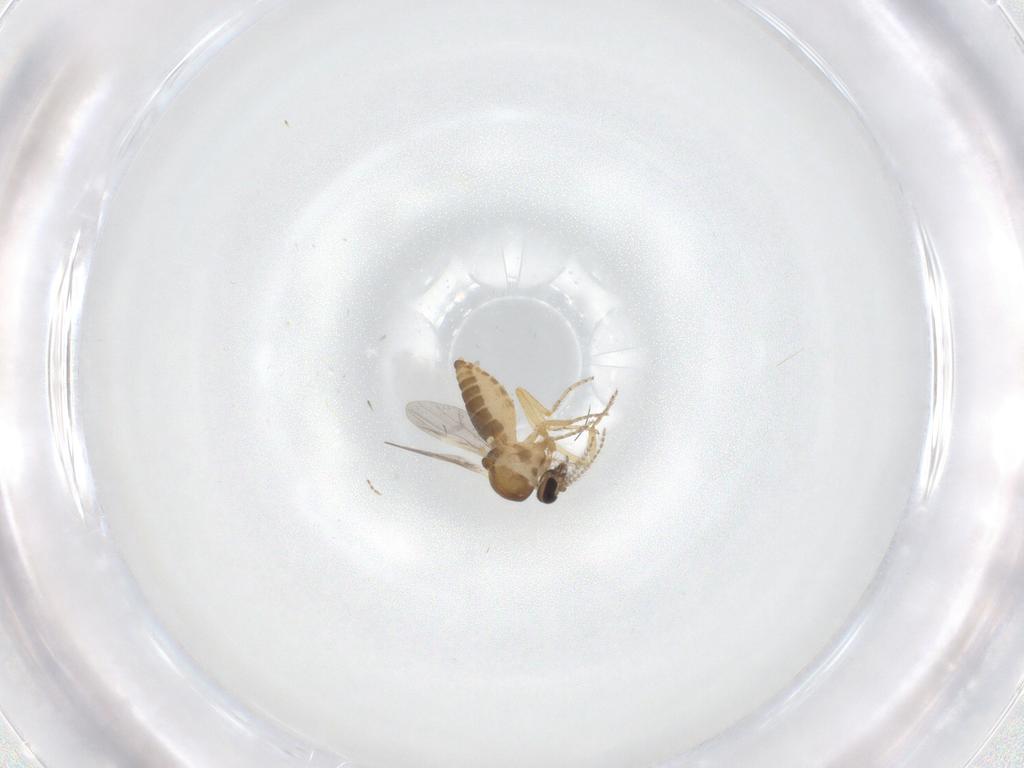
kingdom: Animalia
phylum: Arthropoda
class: Insecta
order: Diptera
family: Ceratopogonidae
